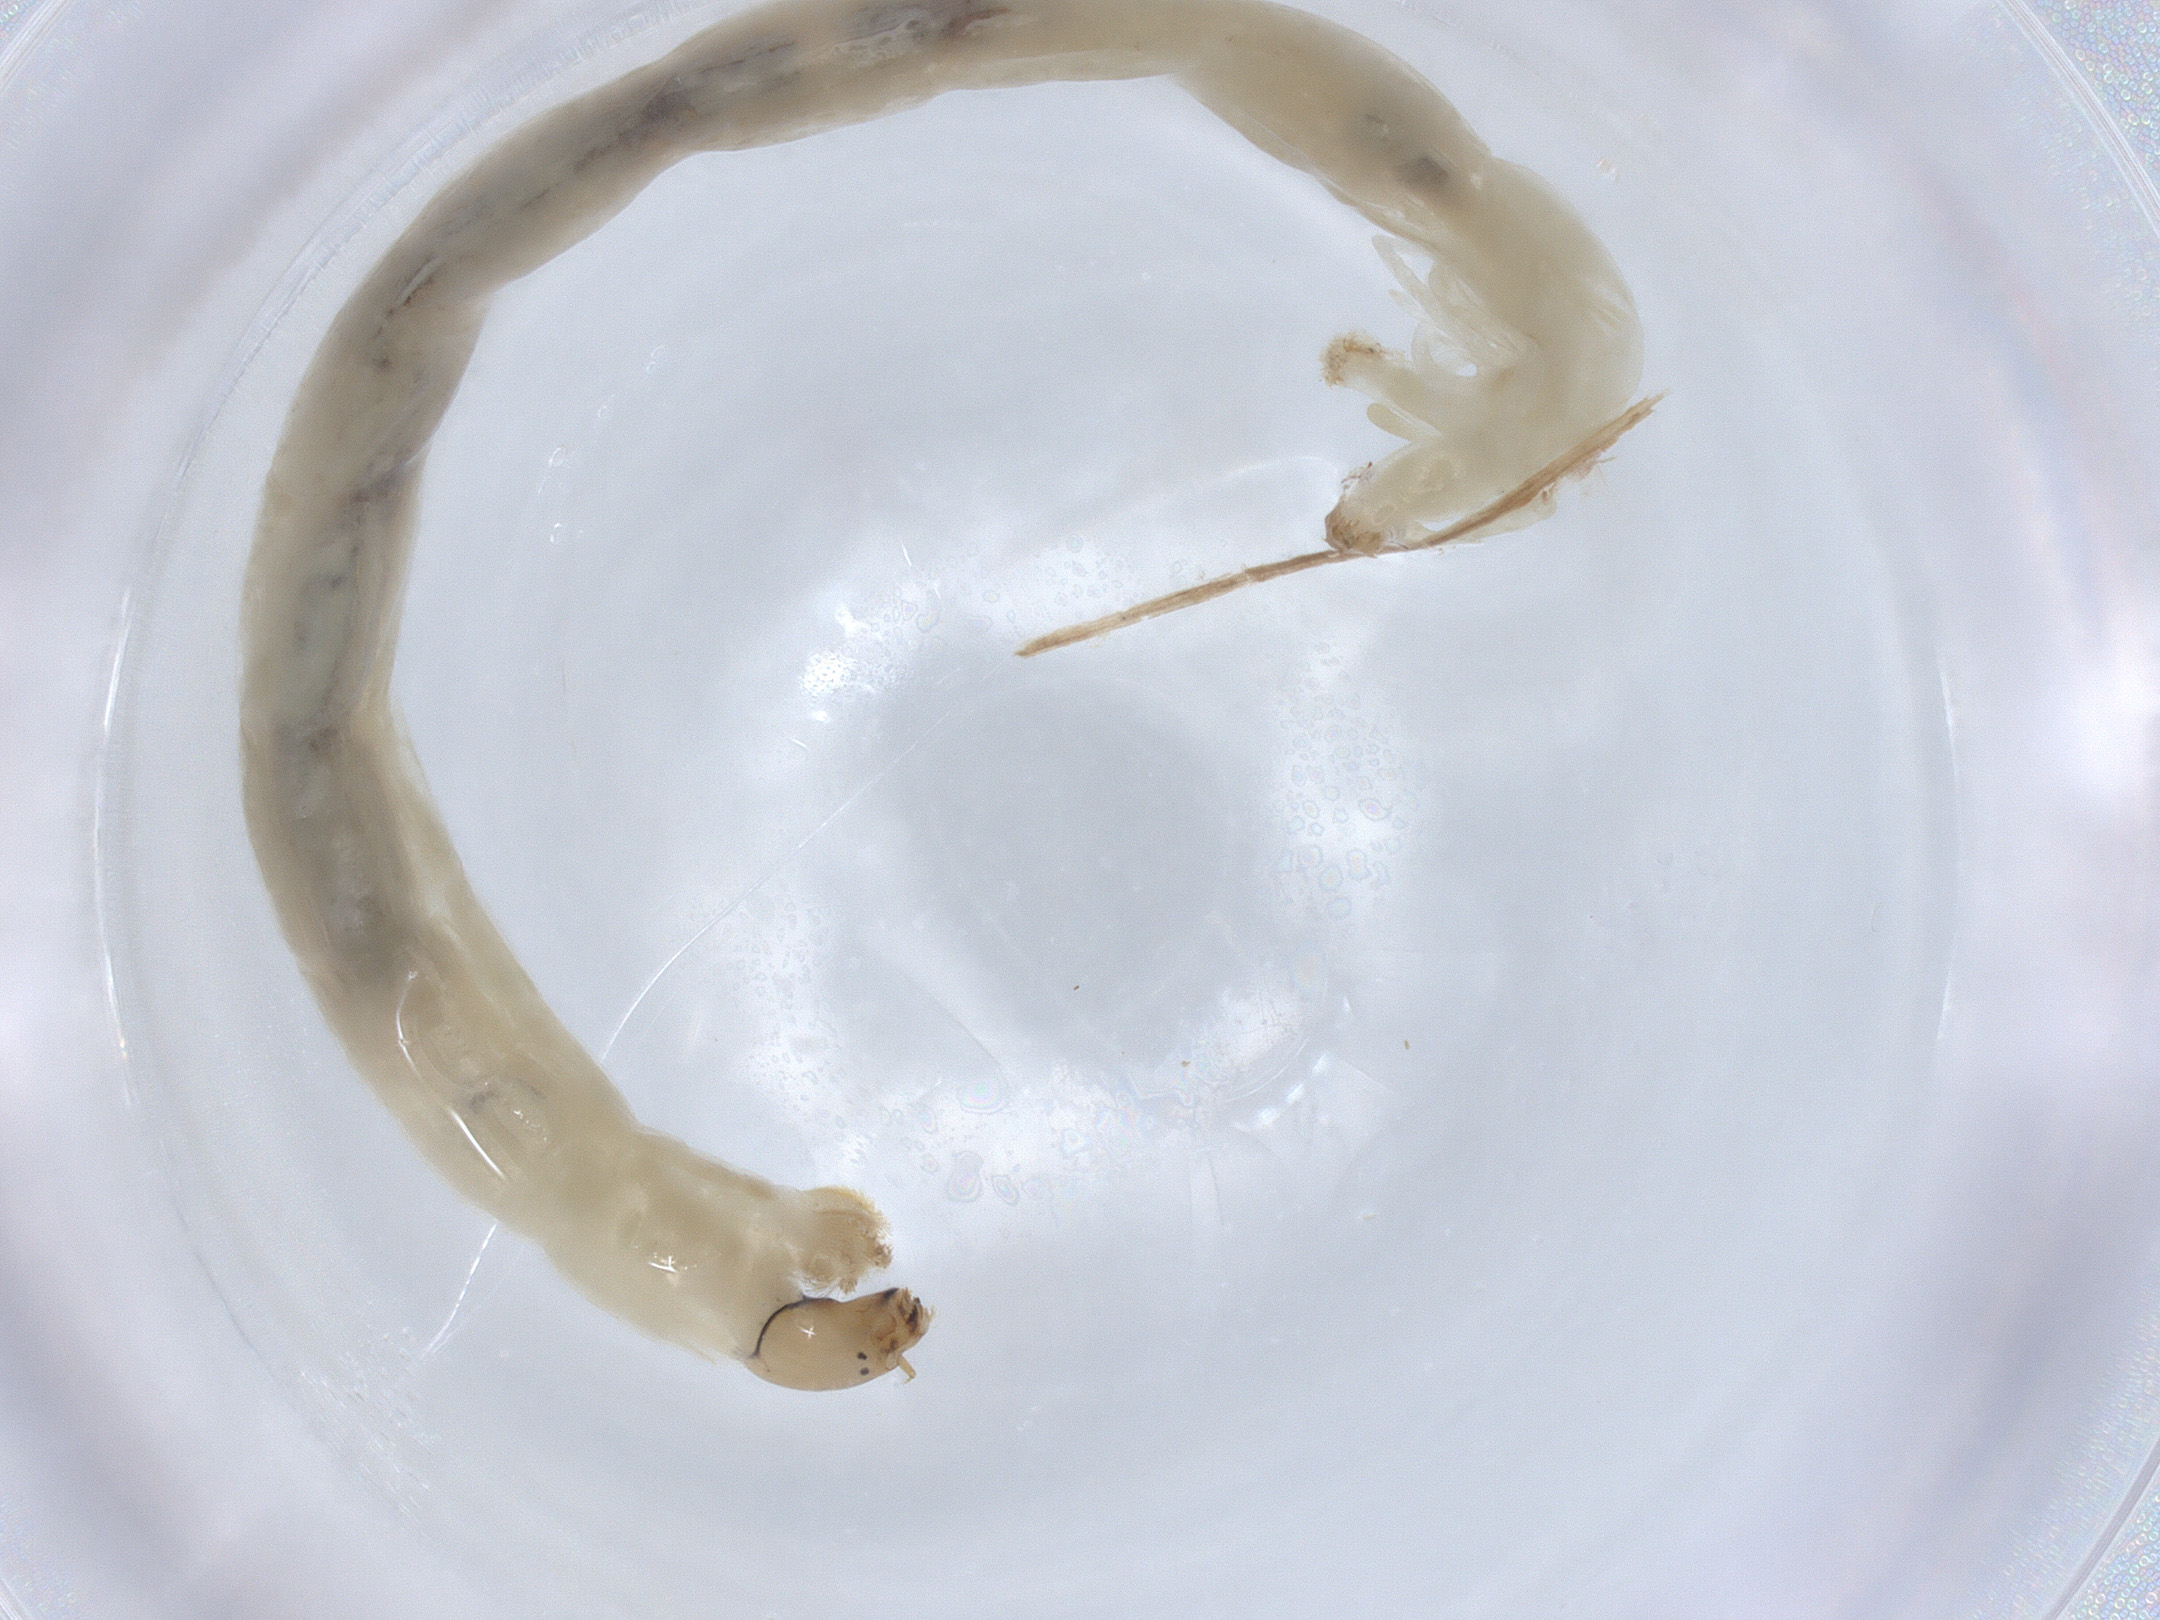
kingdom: Animalia
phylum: Arthropoda
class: Insecta
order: Diptera
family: Chironomidae
